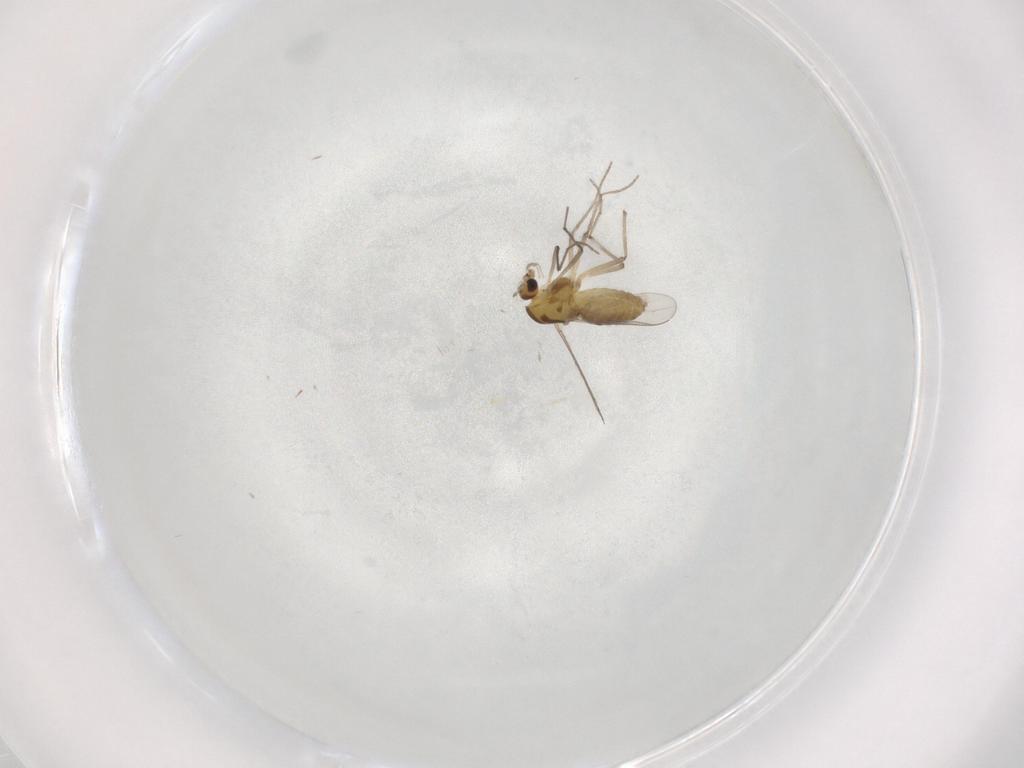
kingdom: Animalia
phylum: Arthropoda
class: Insecta
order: Diptera
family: Chironomidae
